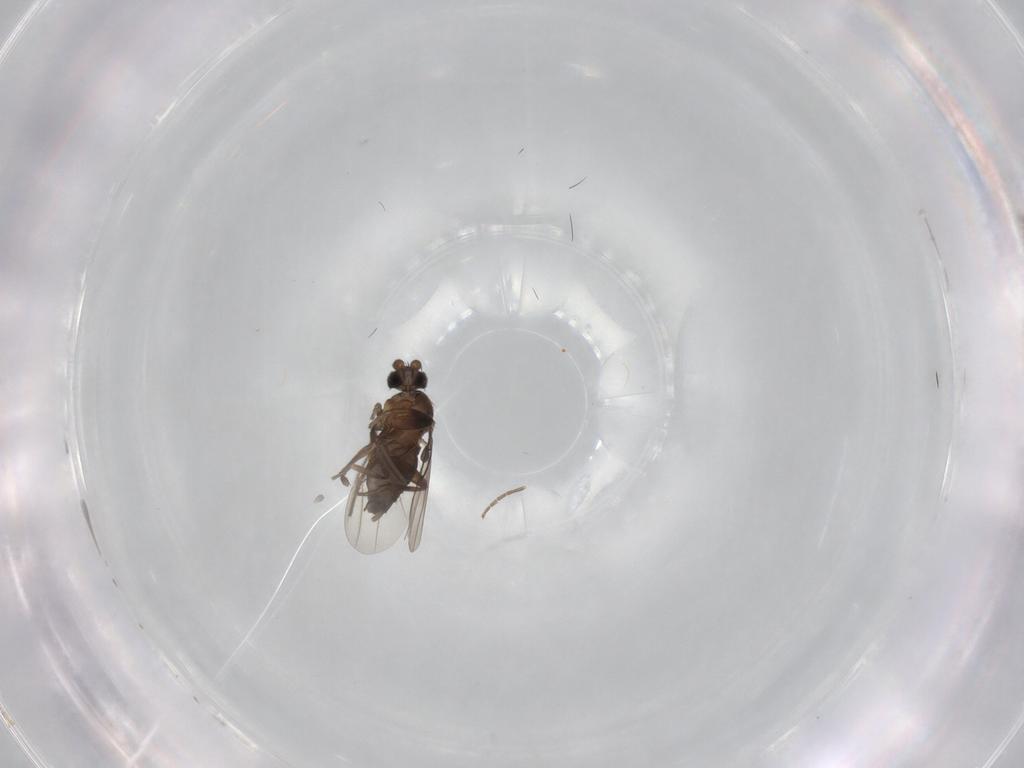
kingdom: Animalia
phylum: Arthropoda
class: Insecta
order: Diptera
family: Phoridae
